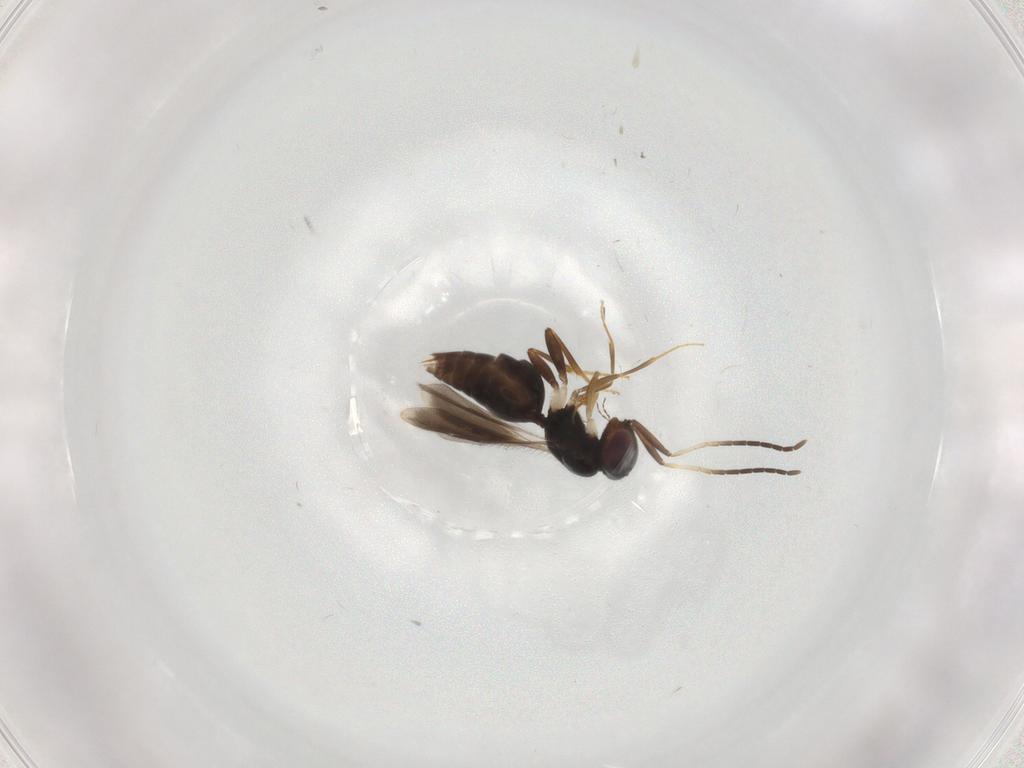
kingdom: Animalia
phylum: Arthropoda
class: Insecta
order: Hymenoptera
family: Megaspilidae
